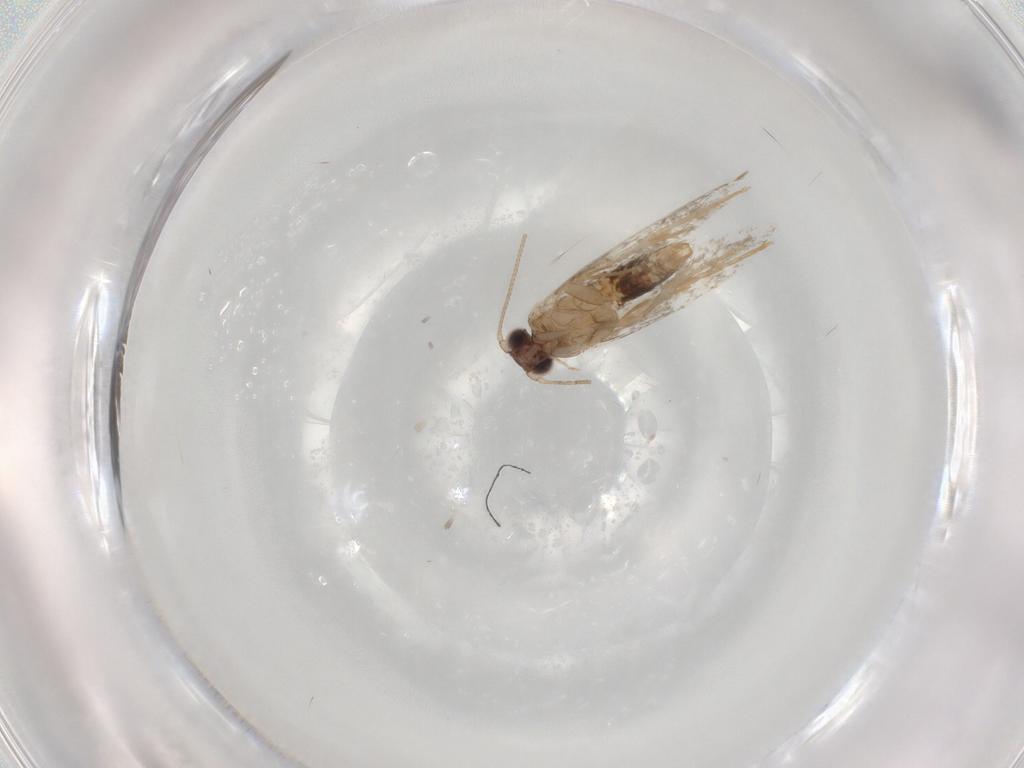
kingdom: Animalia
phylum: Arthropoda
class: Insecta
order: Lepidoptera
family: Tineidae
